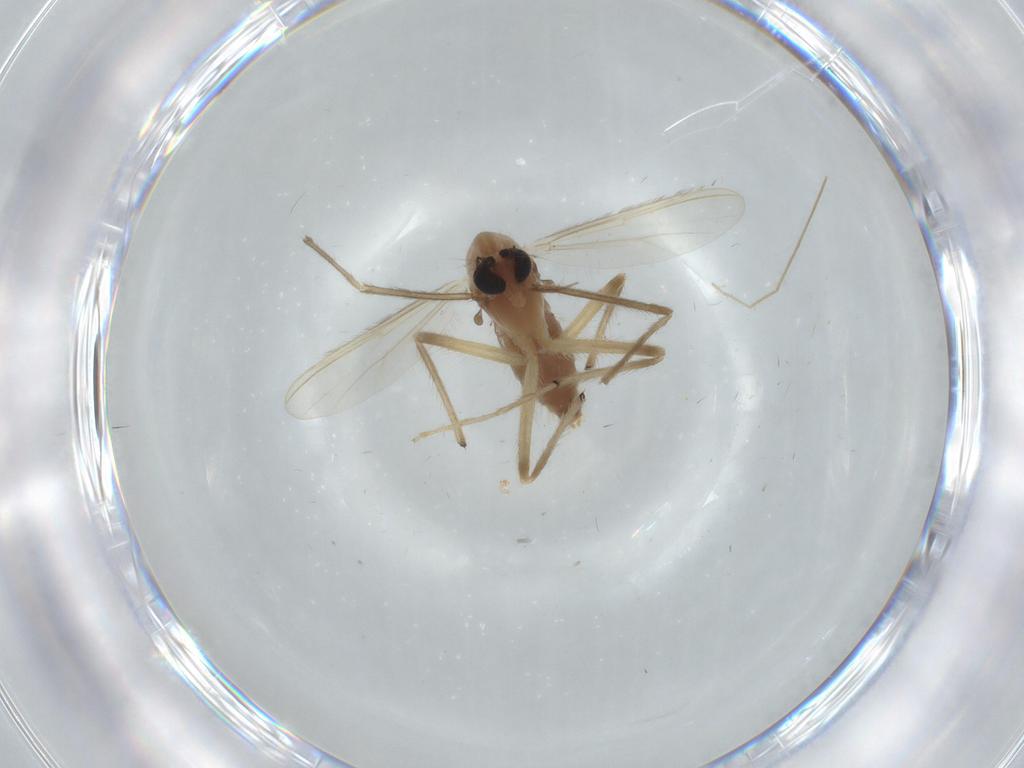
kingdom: Animalia
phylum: Arthropoda
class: Insecta
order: Diptera
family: Chironomidae
